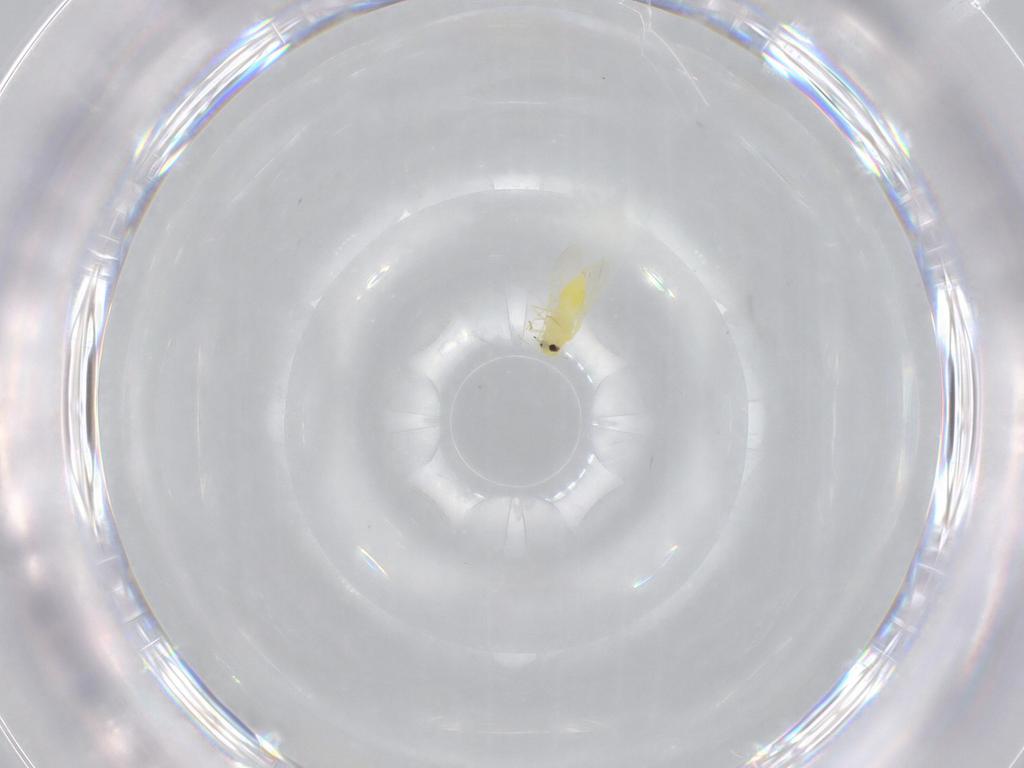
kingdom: Animalia
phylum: Arthropoda
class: Insecta
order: Hemiptera
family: Aleyrodidae
